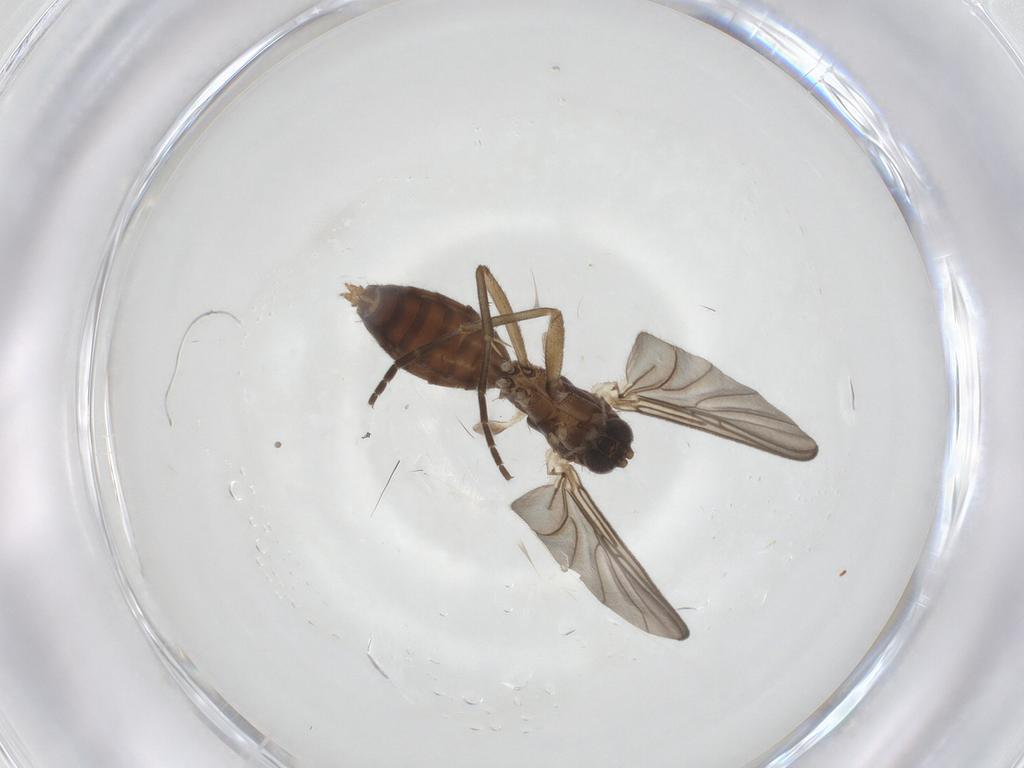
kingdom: Animalia
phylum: Arthropoda
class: Insecta
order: Diptera
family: Mycetophilidae
